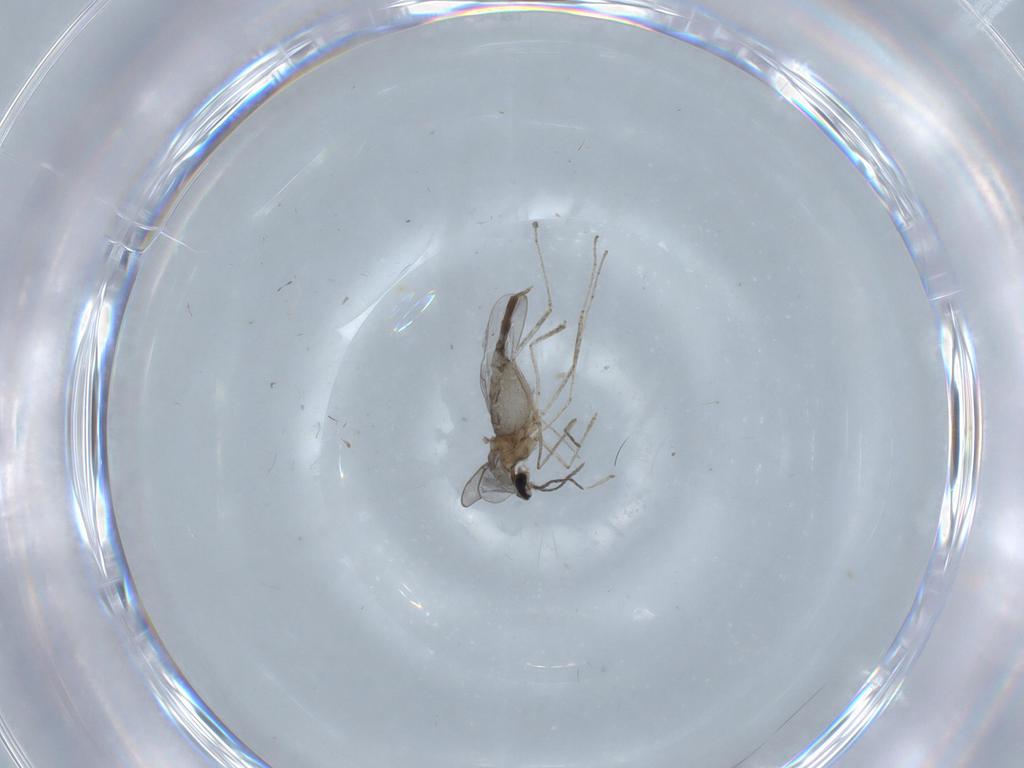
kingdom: Animalia
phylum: Arthropoda
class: Insecta
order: Diptera
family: Cecidomyiidae
